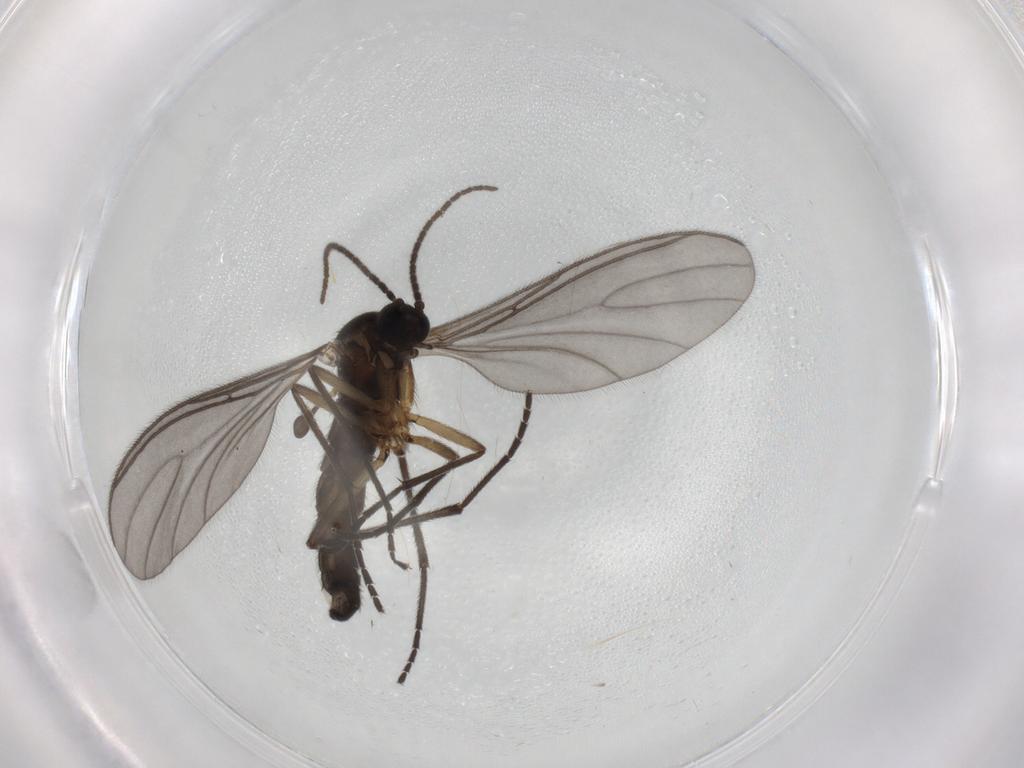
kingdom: Animalia
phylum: Arthropoda
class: Insecta
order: Diptera
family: Sciaridae
